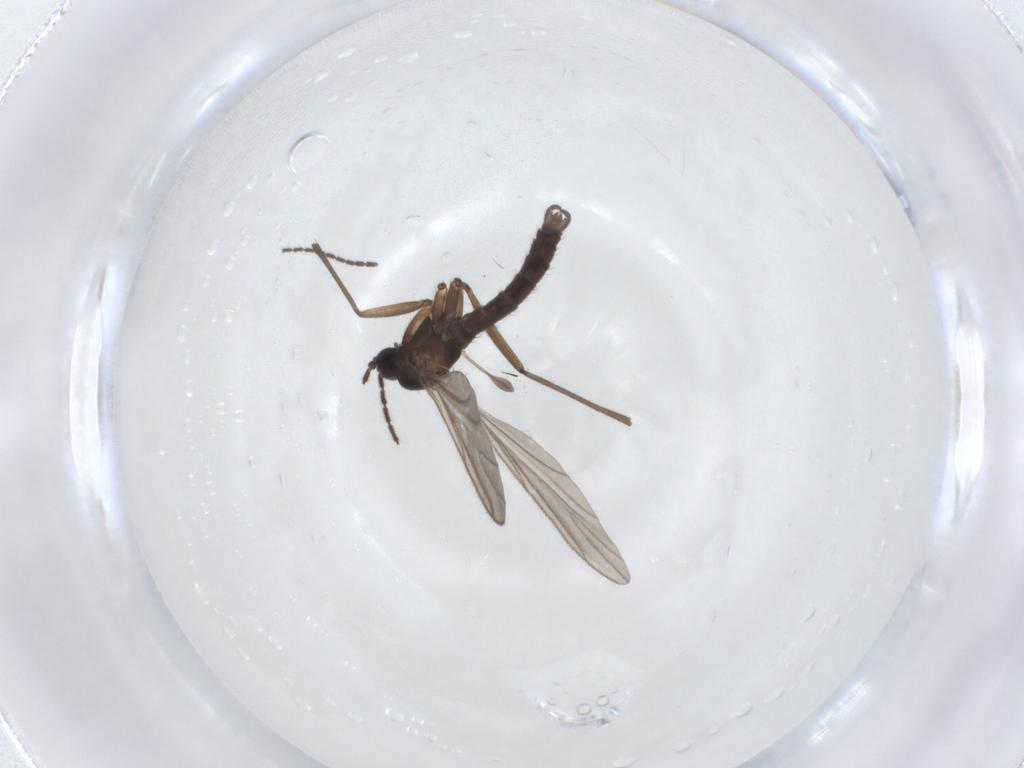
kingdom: Animalia
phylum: Arthropoda
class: Insecta
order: Diptera
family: Sciaridae
